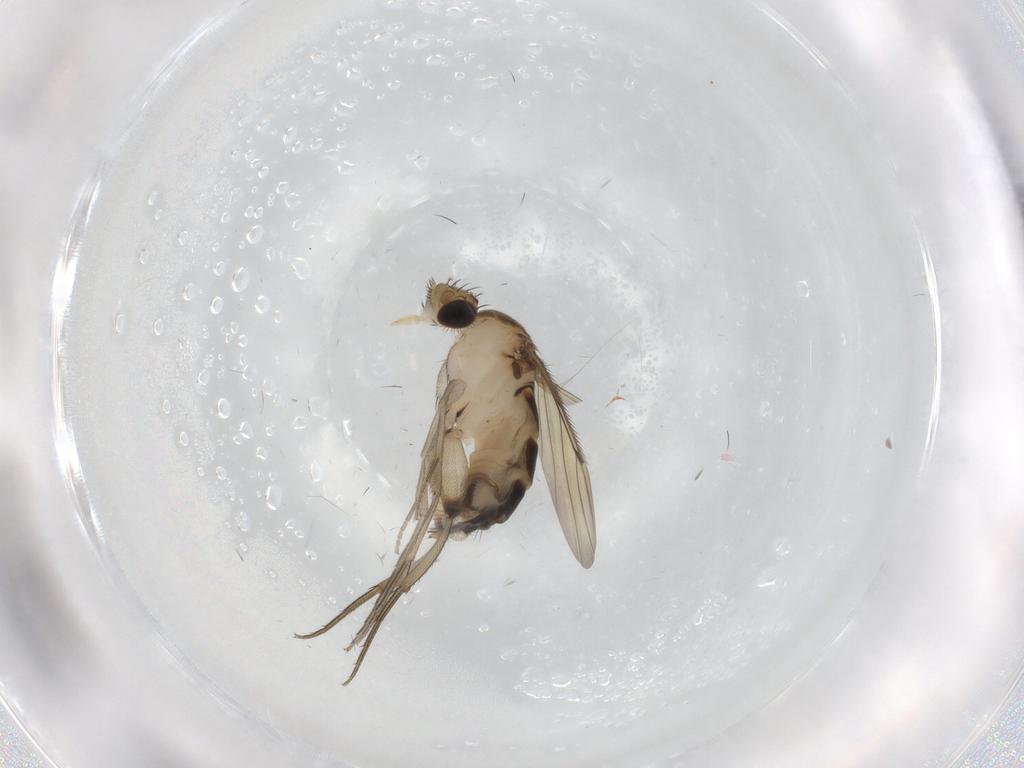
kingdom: Animalia
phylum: Arthropoda
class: Insecta
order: Diptera
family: Phoridae
